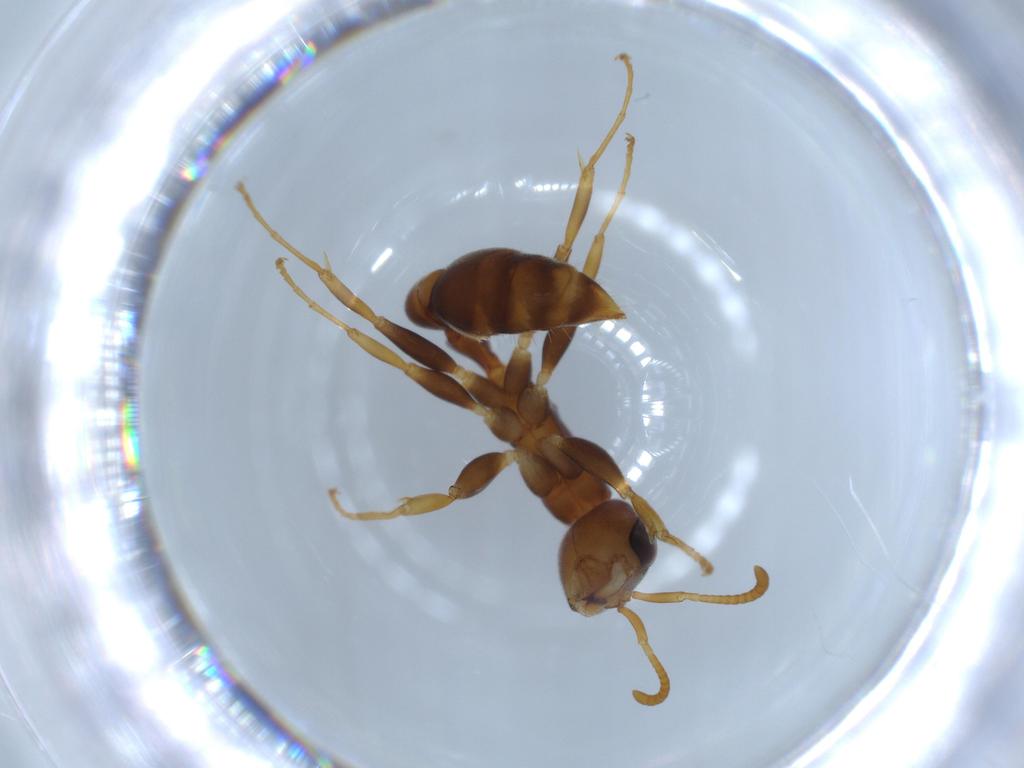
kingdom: Animalia
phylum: Arthropoda
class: Insecta
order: Hymenoptera
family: Formicidae
